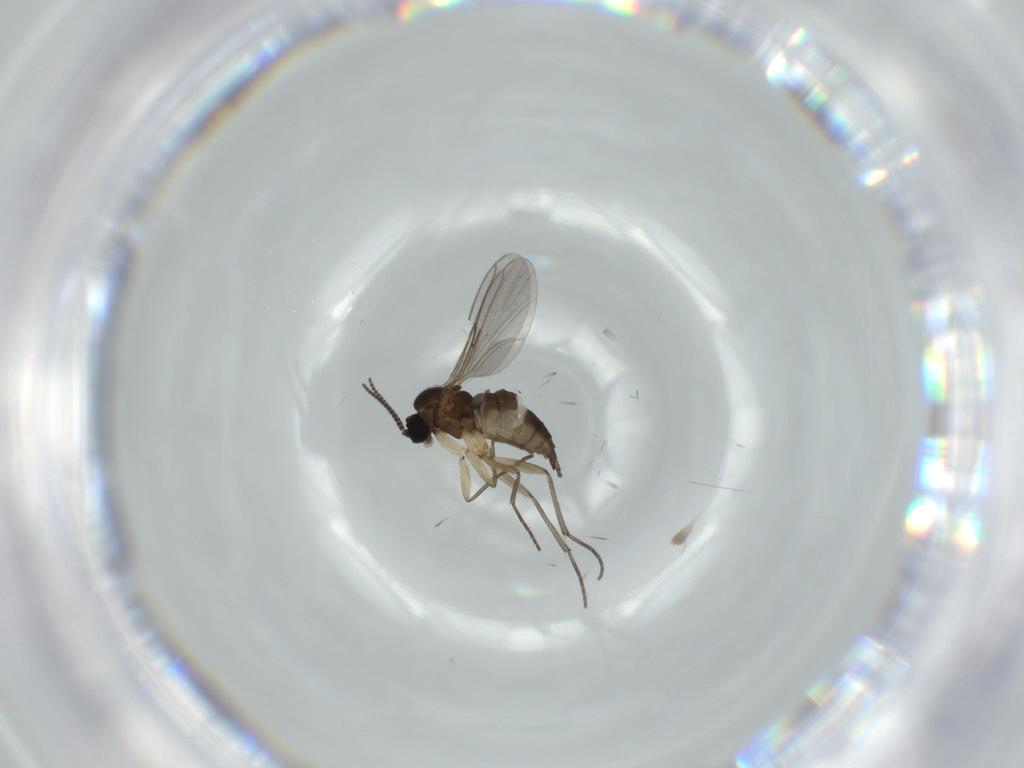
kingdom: Animalia
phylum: Arthropoda
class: Insecta
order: Diptera
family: Sciaridae
